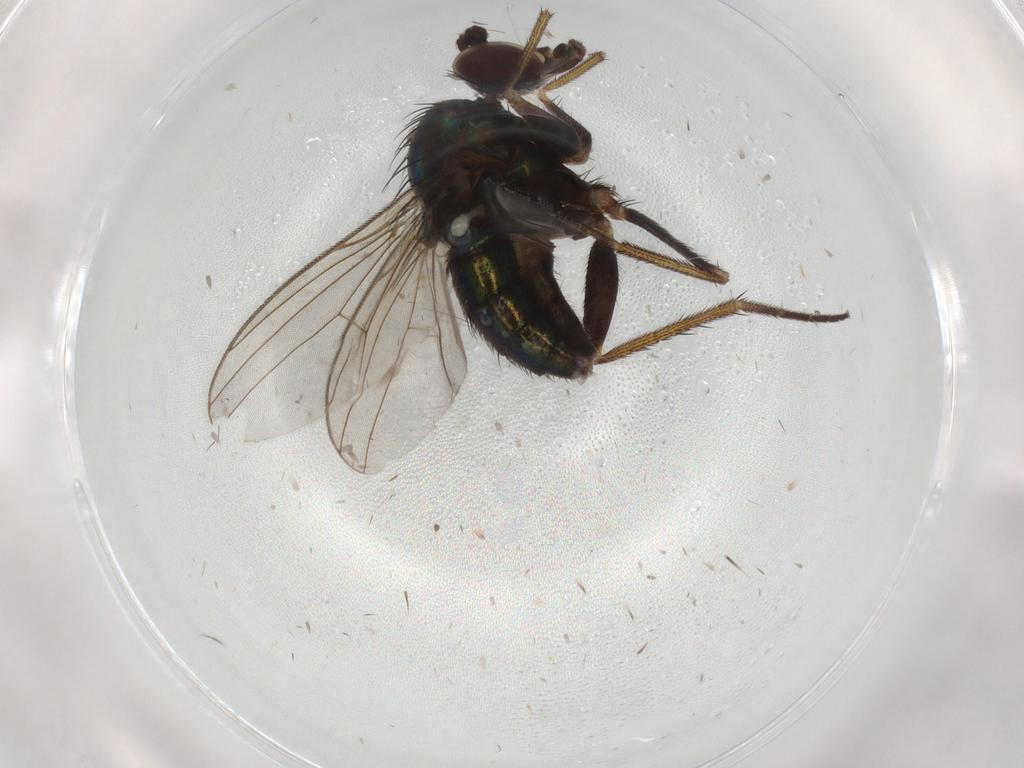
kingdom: Animalia
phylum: Arthropoda
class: Insecta
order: Diptera
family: Dolichopodidae
